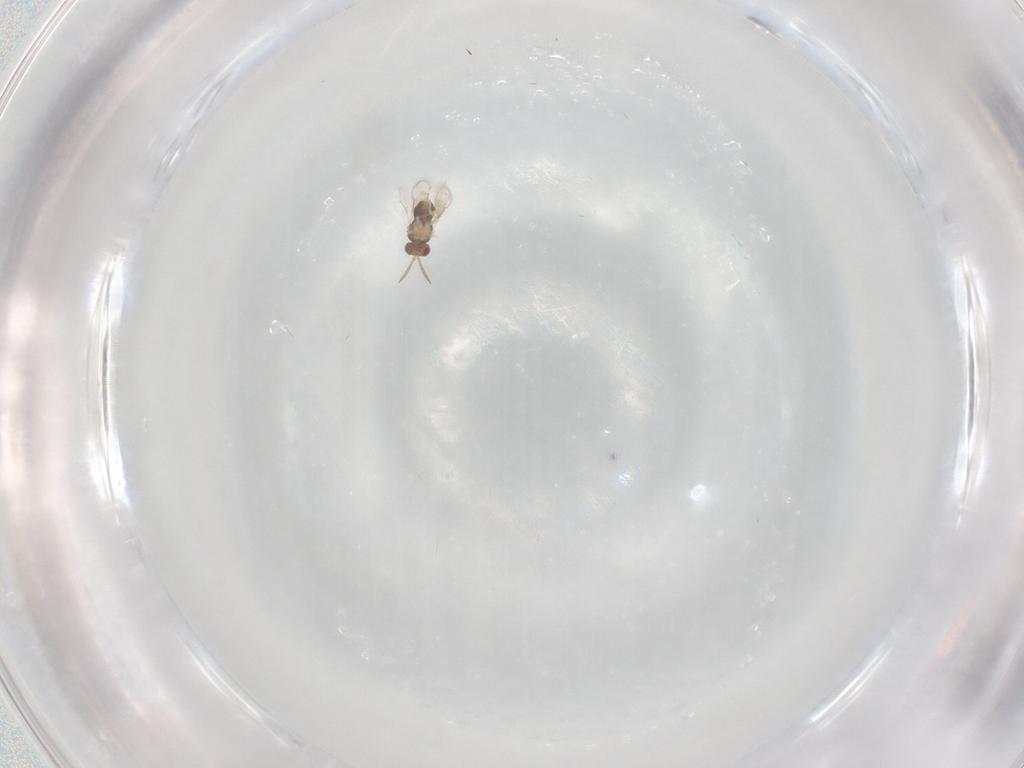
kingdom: Animalia
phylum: Arthropoda
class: Insecta
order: Hymenoptera
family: Aphelinidae
